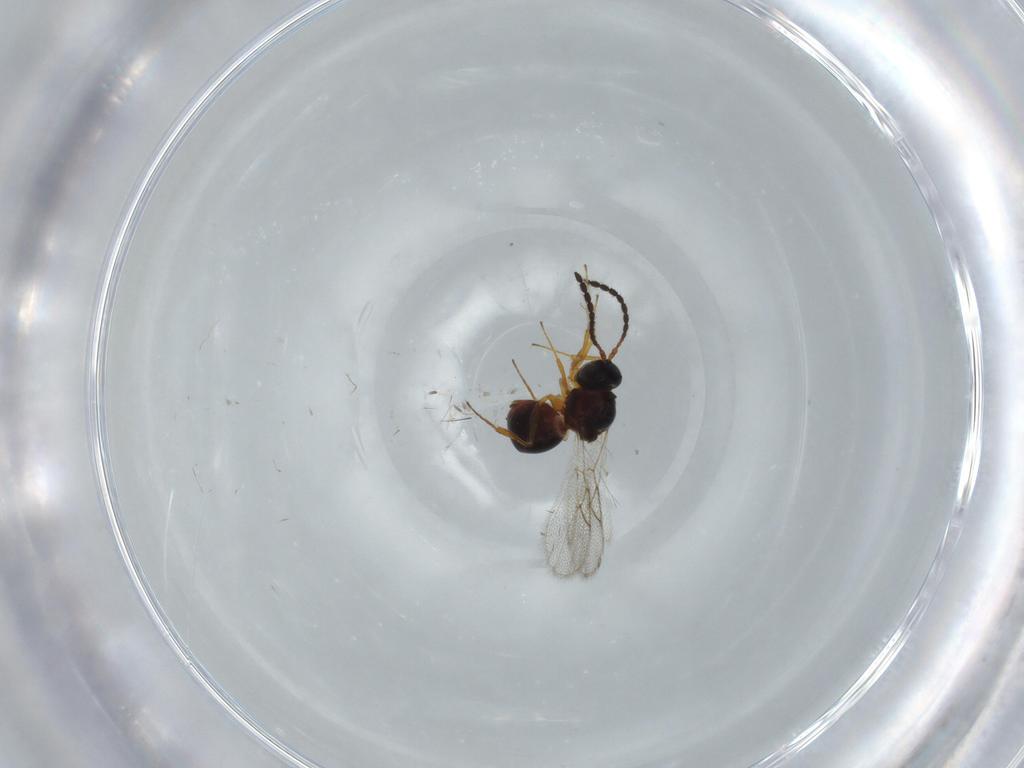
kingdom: Animalia
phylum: Arthropoda
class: Insecta
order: Hymenoptera
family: Figitidae
